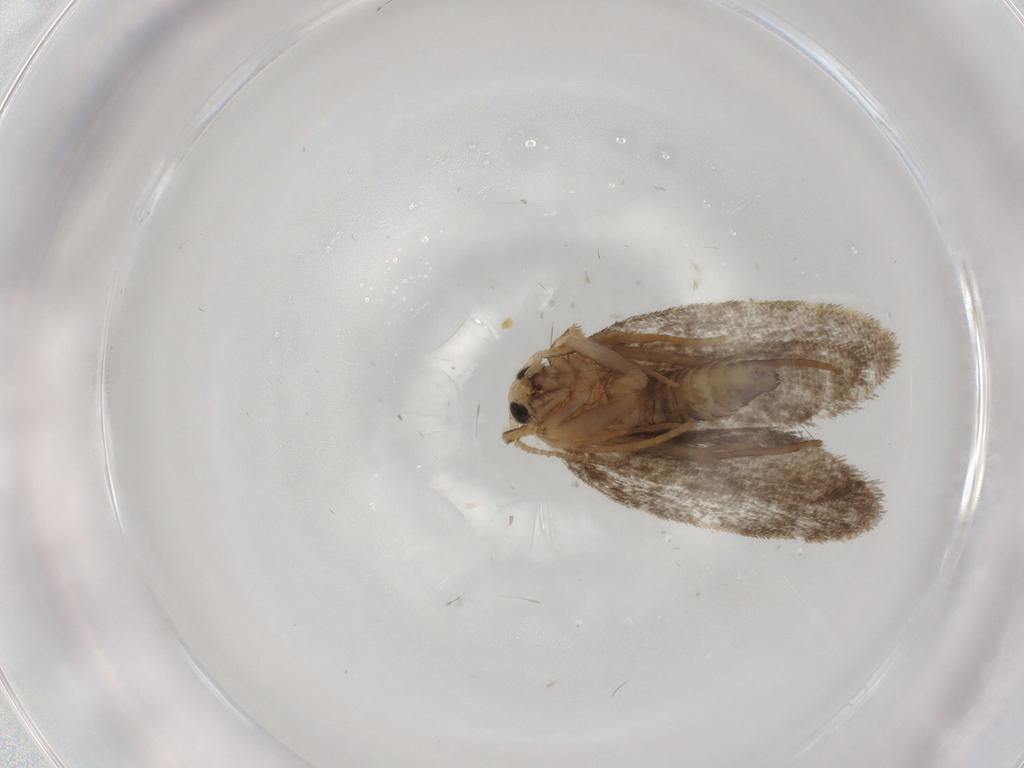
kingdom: Animalia
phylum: Arthropoda
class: Insecta
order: Lepidoptera
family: Psychidae
